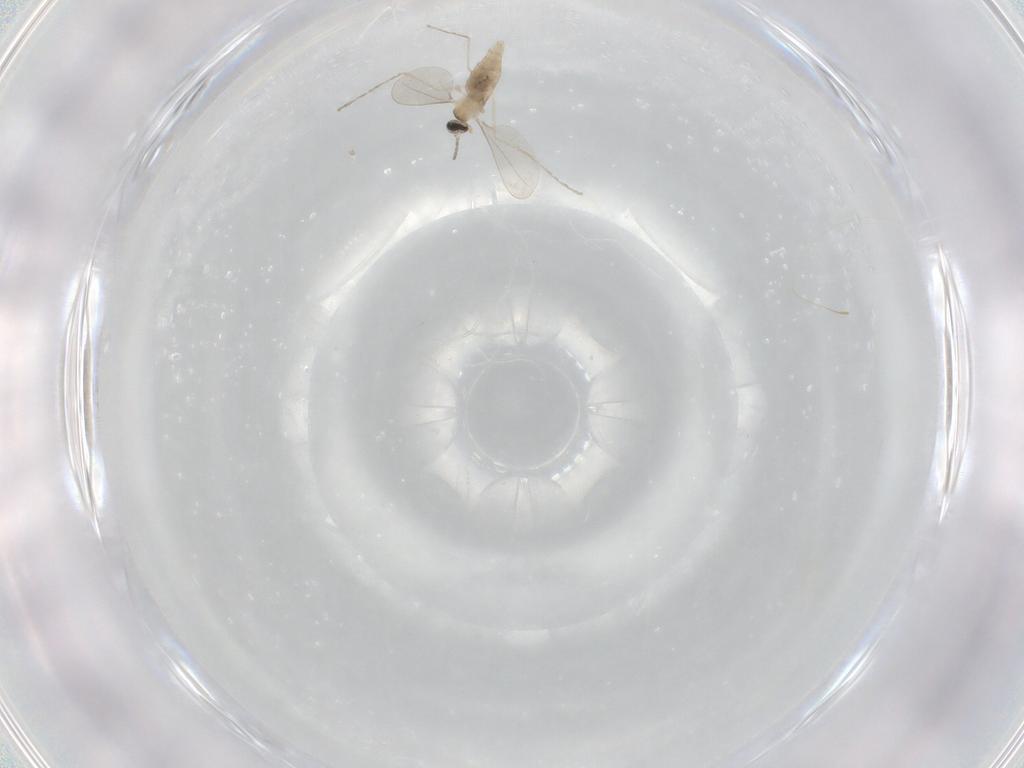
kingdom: Animalia
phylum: Arthropoda
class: Insecta
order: Diptera
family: Cecidomyiidae
